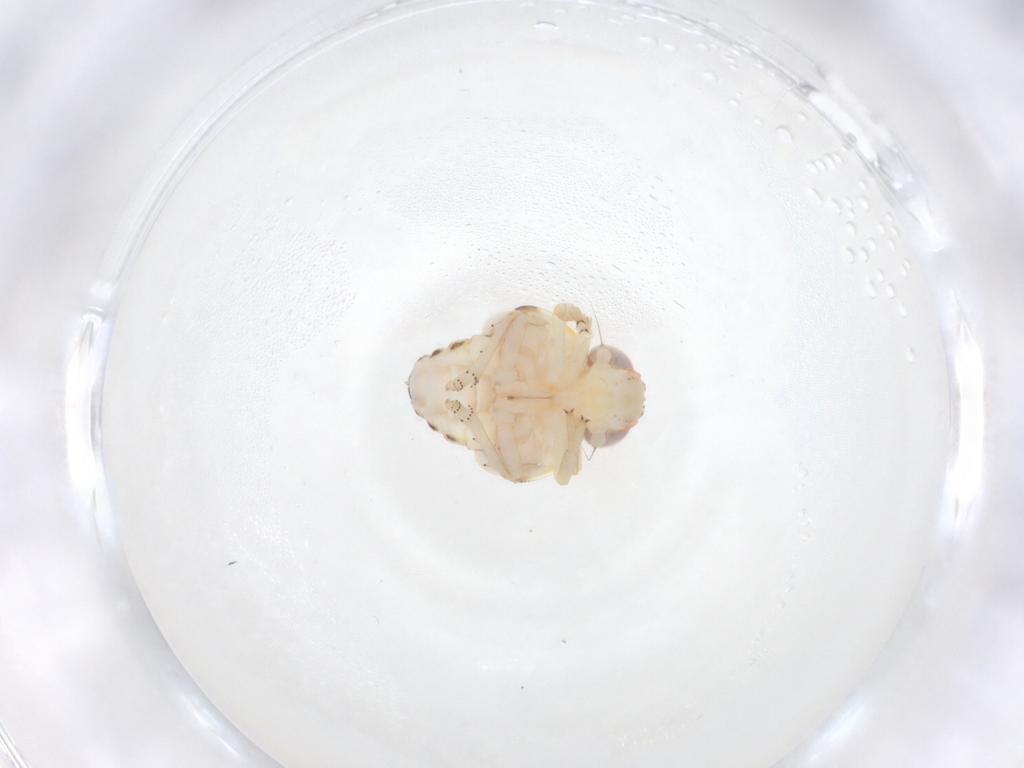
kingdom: Animalia
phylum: Arthropoda
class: Insecta
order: Hemiptera
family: Nogodinidae
